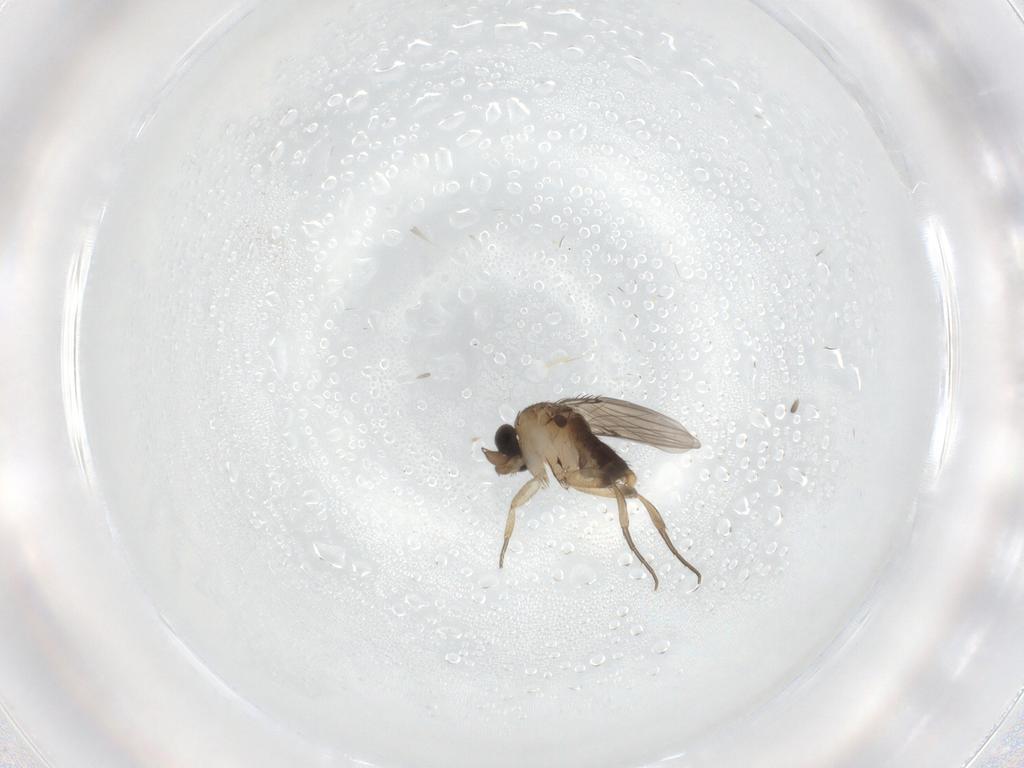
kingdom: Animalia
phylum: Arthropoda
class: Insecta
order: Diptera
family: Phoridae
